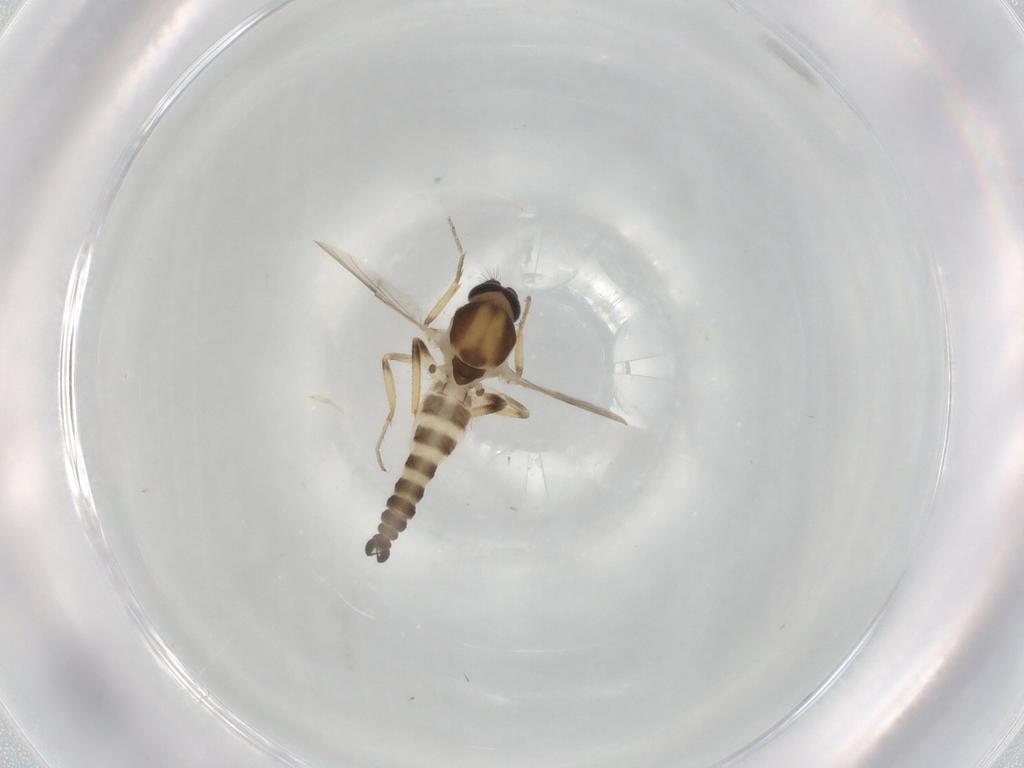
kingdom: Animalia
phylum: Arthropoda
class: Insecta
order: Diptera
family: Ceratopogonidae
